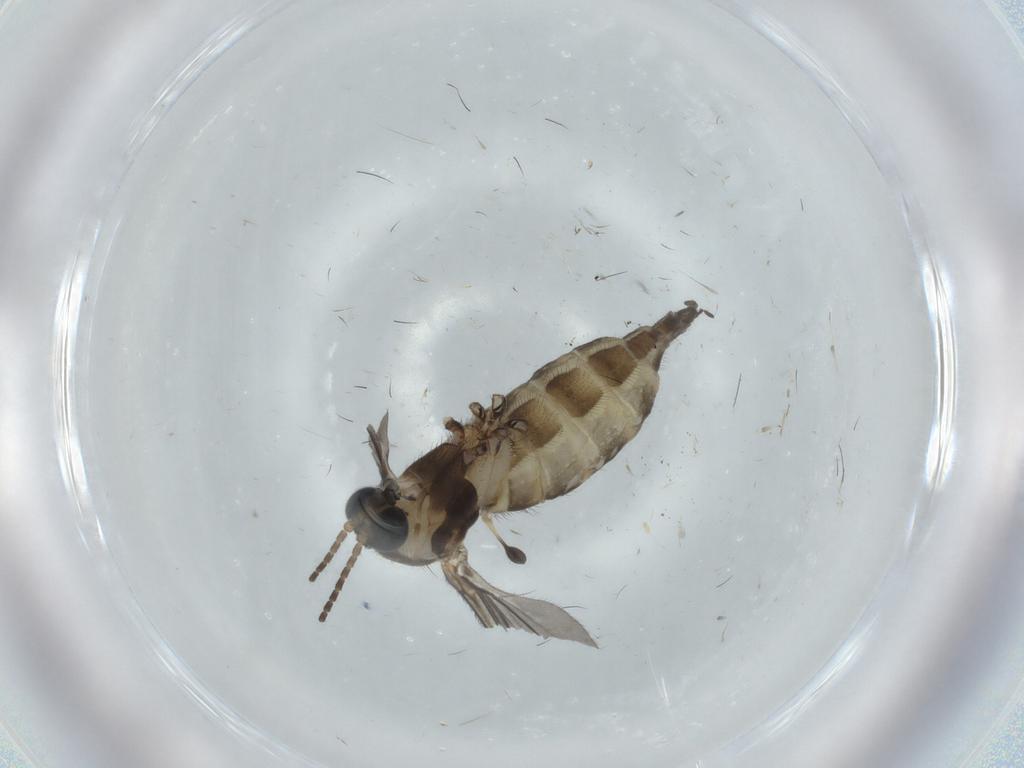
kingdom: Animalia
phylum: Arthropoda
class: Insecta
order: Diptera
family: Sciaridae
